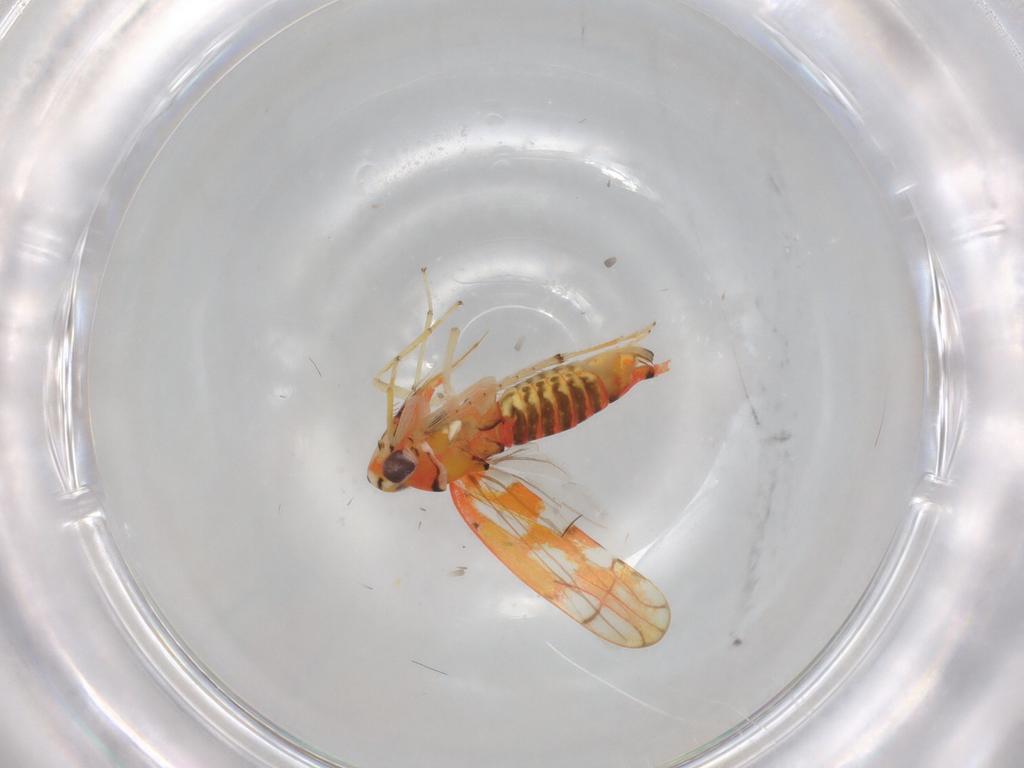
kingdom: Animalia
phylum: Arthropoda
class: Insecta
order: Hemiptera
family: Cicadellidae
